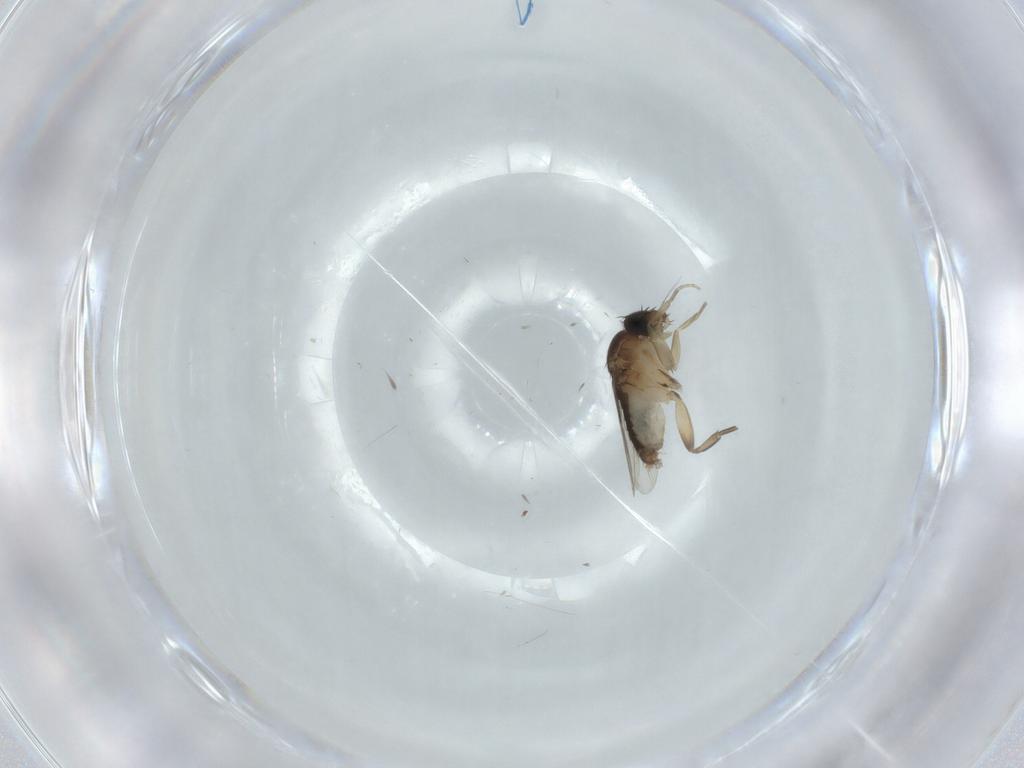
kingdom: Animalia
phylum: Arthropoda
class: Insecta
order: Diptera
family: Phoridae
